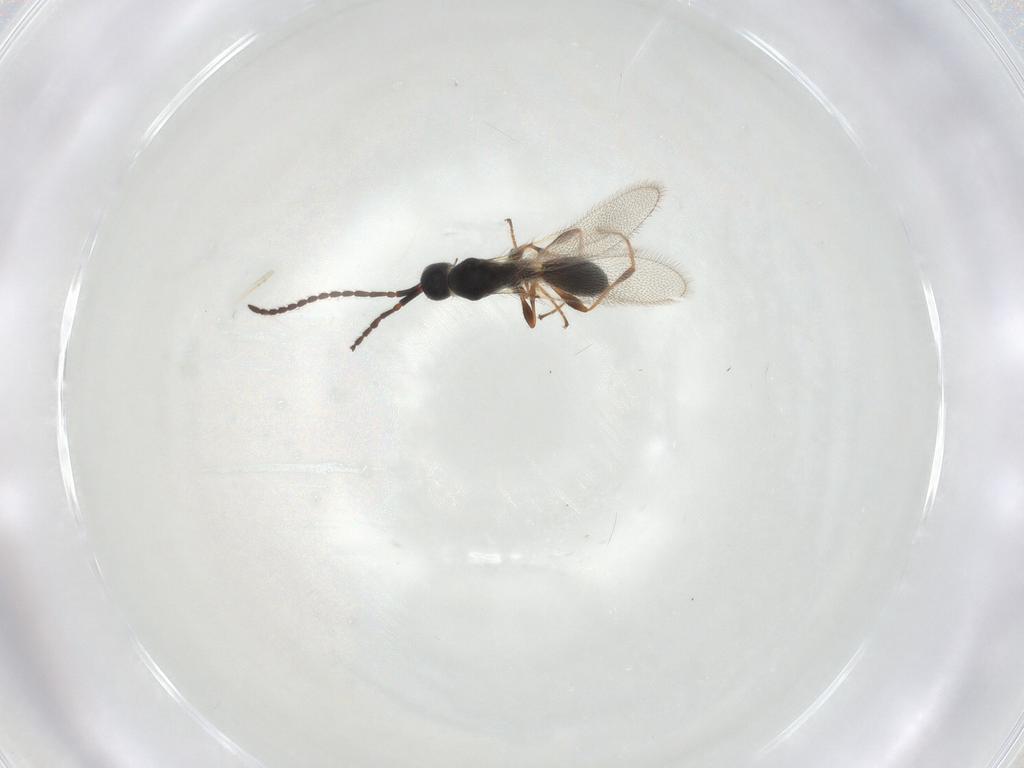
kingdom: Animalia
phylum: Arthropoda
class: Insecta
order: Hymenoptera
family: Diapriidae
